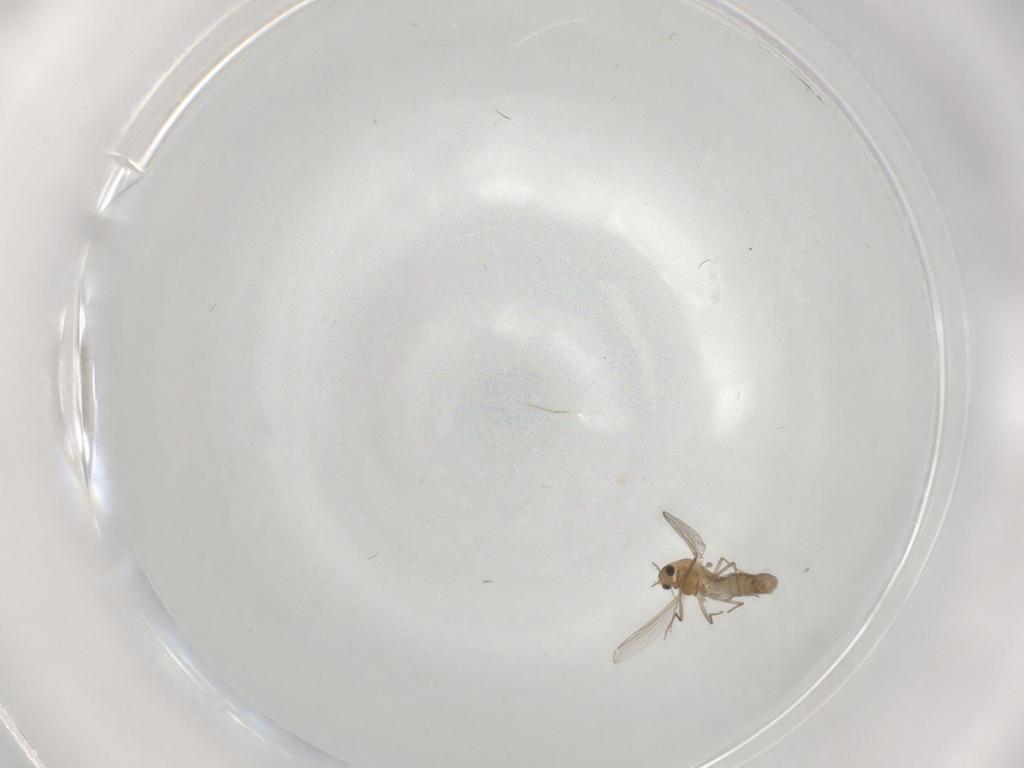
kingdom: Animalia
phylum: Arthropoda
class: Insecta
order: Diptera
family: Chironomidae
